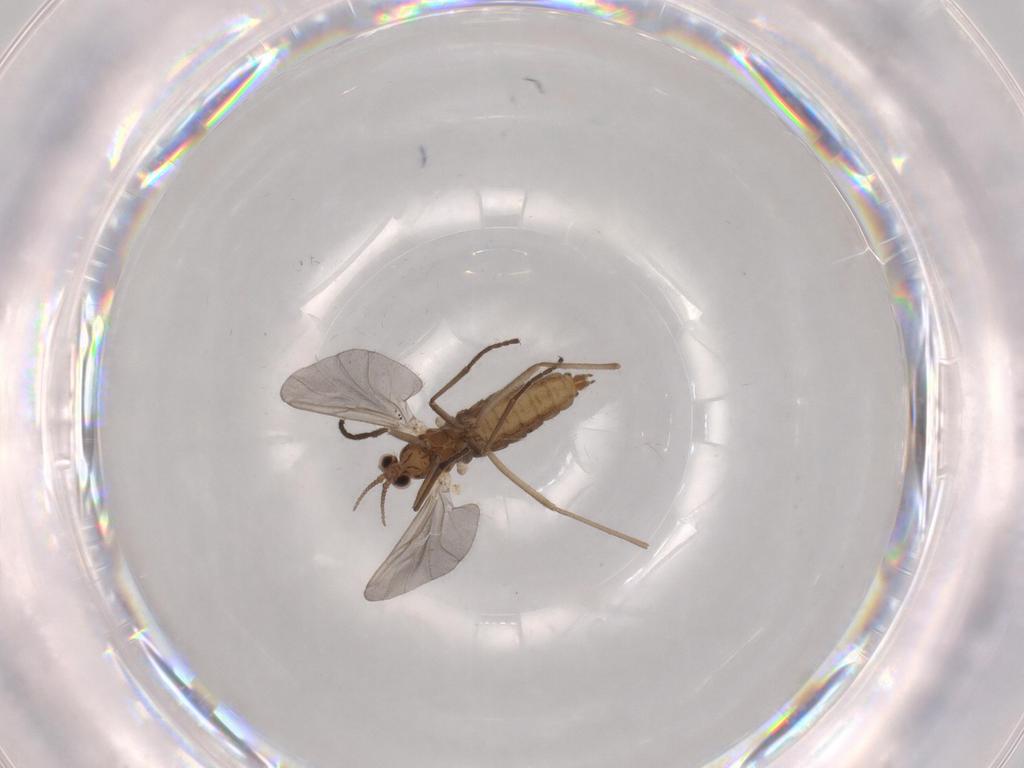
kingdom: Animalia
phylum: Arthropoda
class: Insecta
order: Diptera
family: Cecidomyiidae
